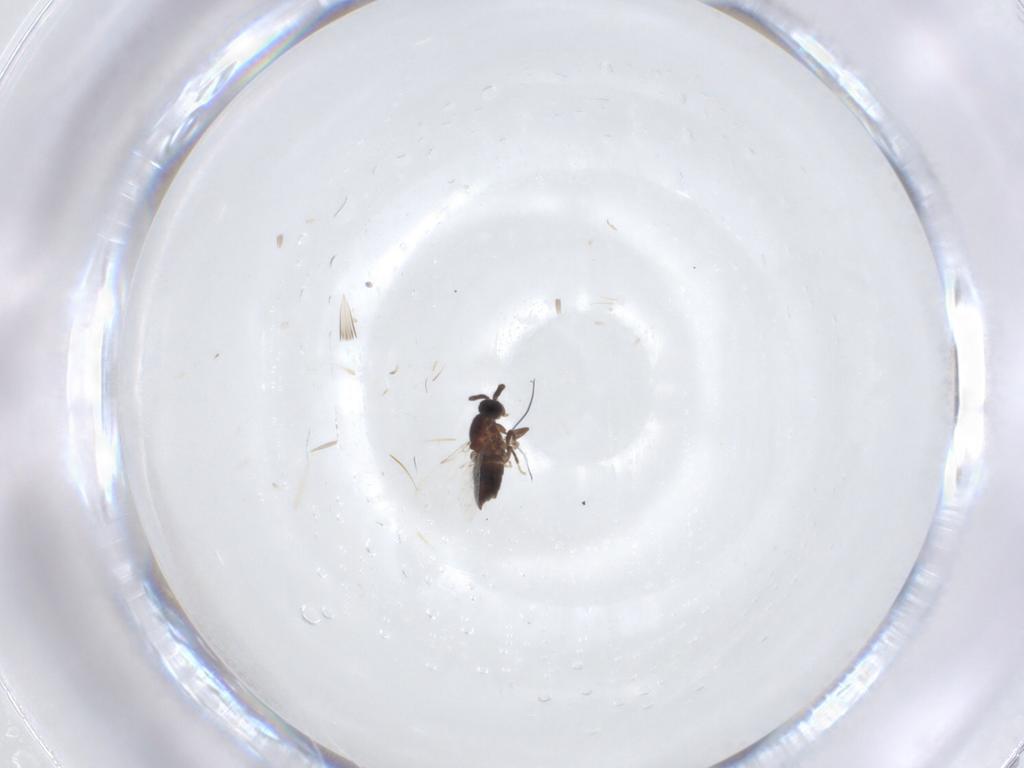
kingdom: Animalia
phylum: Arthropoda
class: Insecta
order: Diptera
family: Scatopsidae
